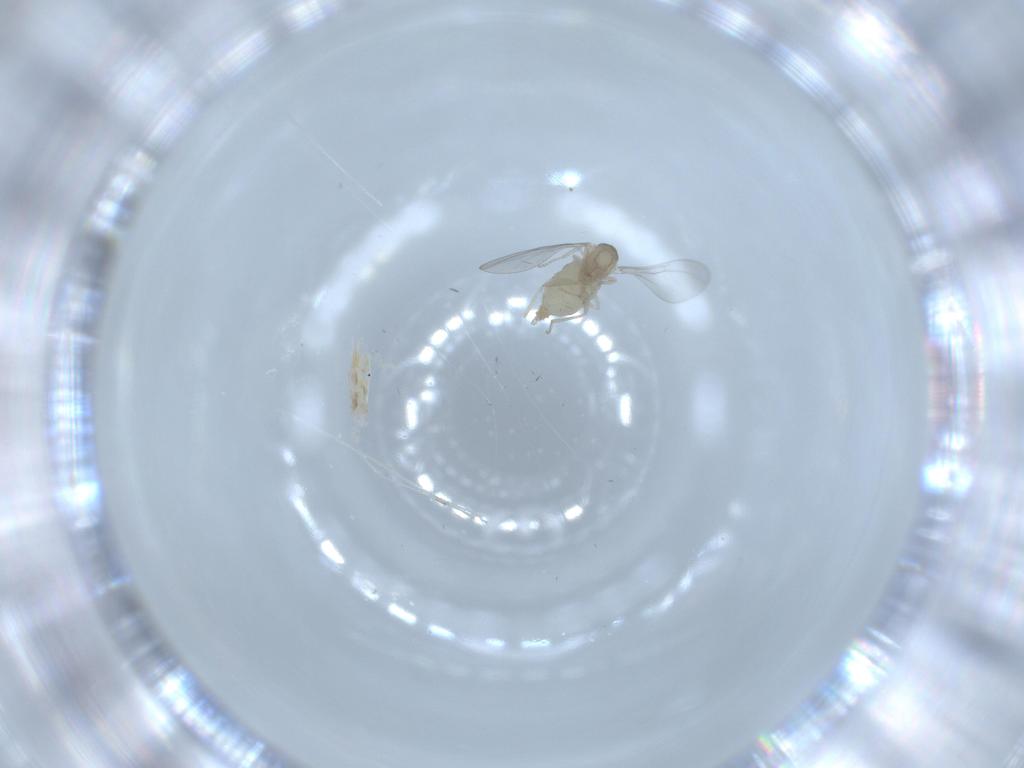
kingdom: Animalia
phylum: Arthropoda
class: Insecta
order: Diptera
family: Cecidomyiidae
